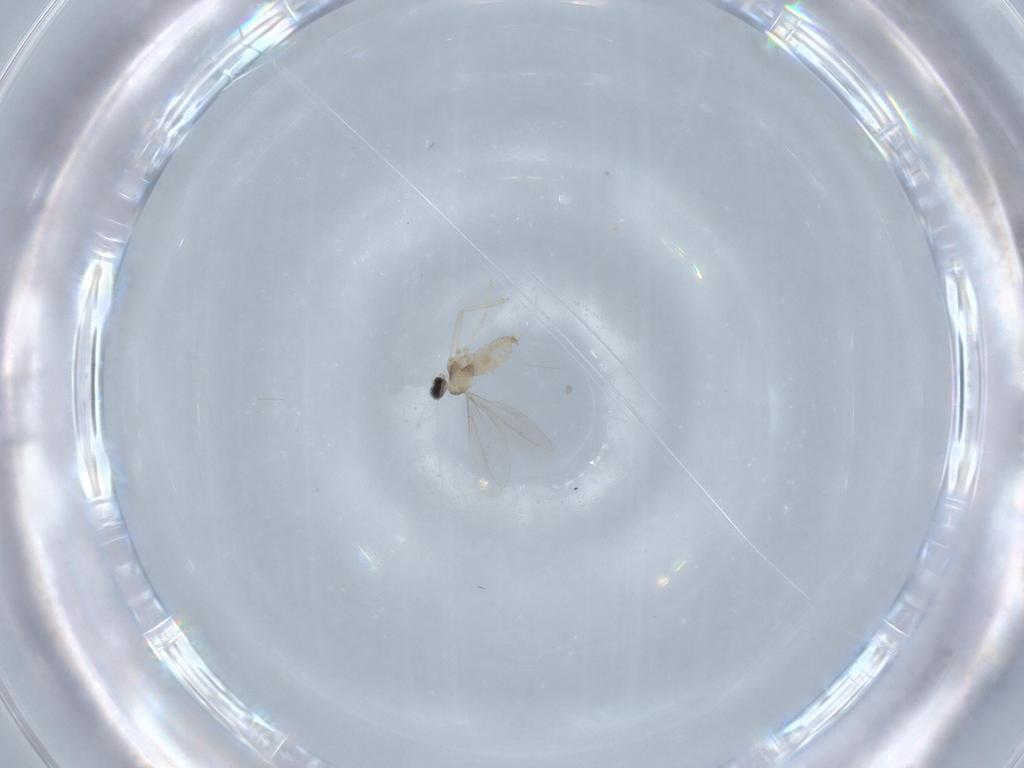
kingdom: Animalia
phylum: Arthropoda
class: Insecta
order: Diptera
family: Cecidomyiidae
